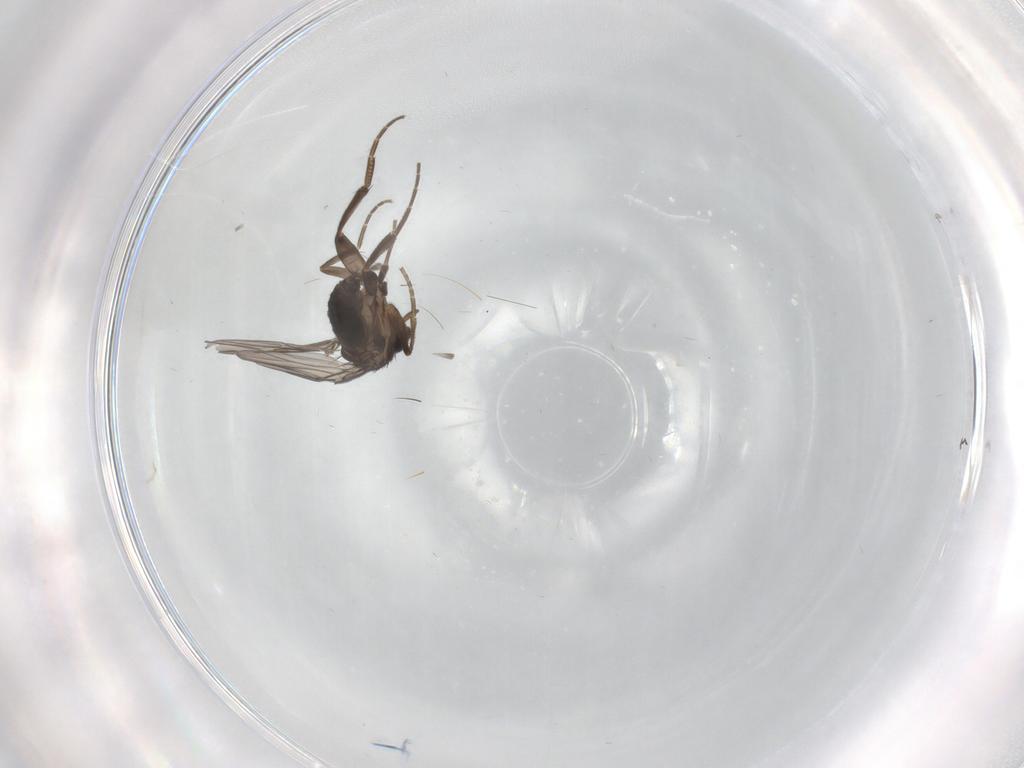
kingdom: Animalia
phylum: Arthropoda
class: Insecta
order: Diptera
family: Phoridae
